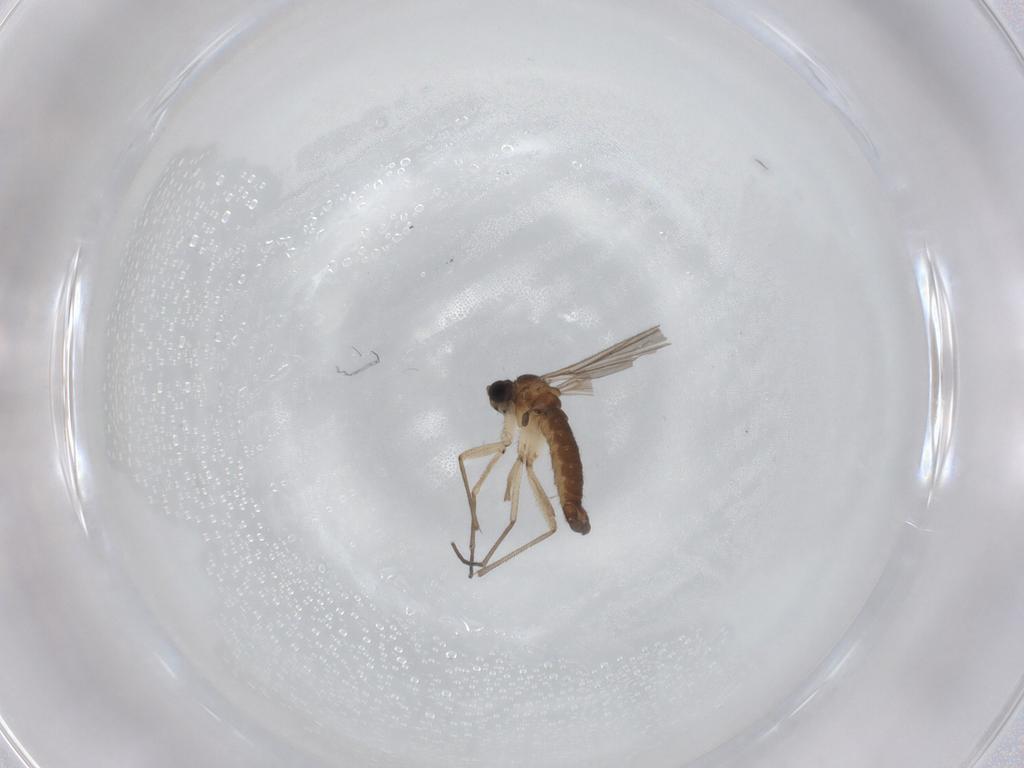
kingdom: Animalia
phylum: Arthropoda
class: Insecta
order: Diptera
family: Sciaridae
